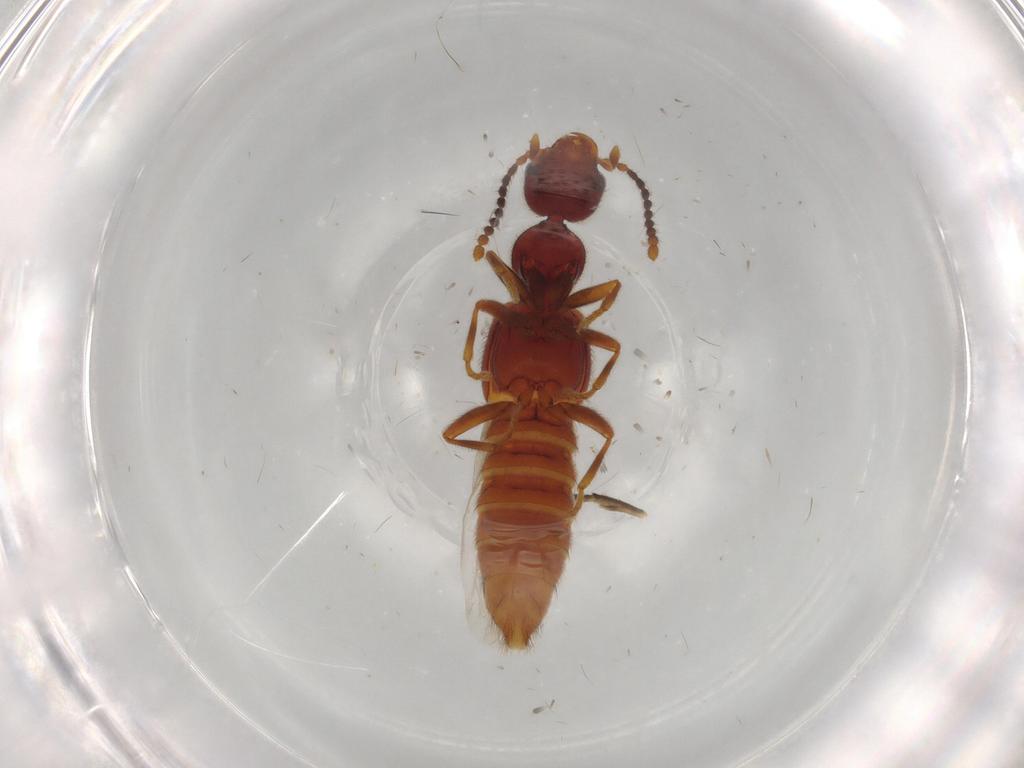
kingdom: Animalia
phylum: Arthropoda
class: Insecta
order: Coleoptera
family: Staphylinidae
